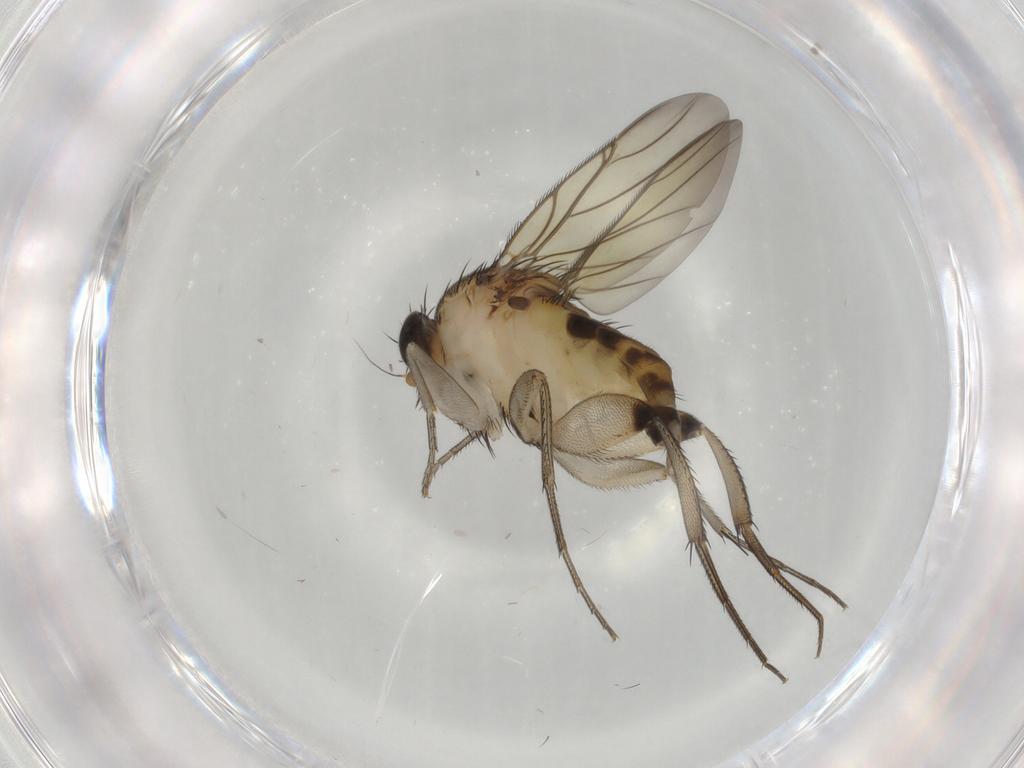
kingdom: Animalia
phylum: Arthropoda
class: Insecta
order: Diptera
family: Phoridae
